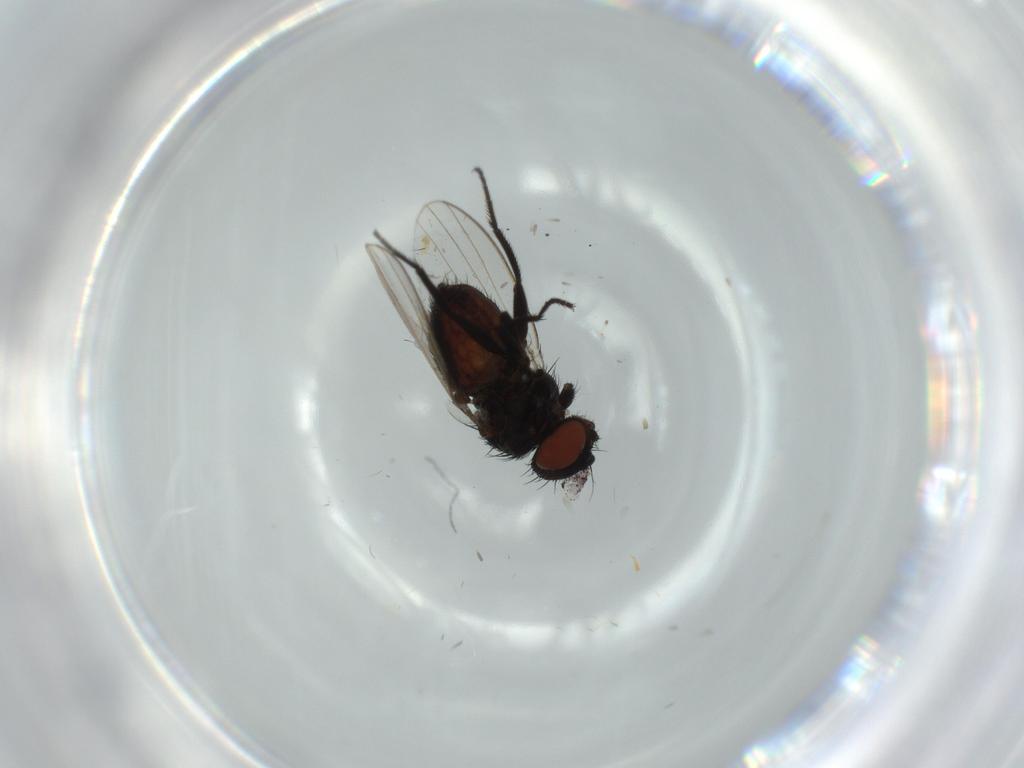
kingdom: Animalia
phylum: Arthropoda
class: Insecta
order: Diptera
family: Milichiidae
